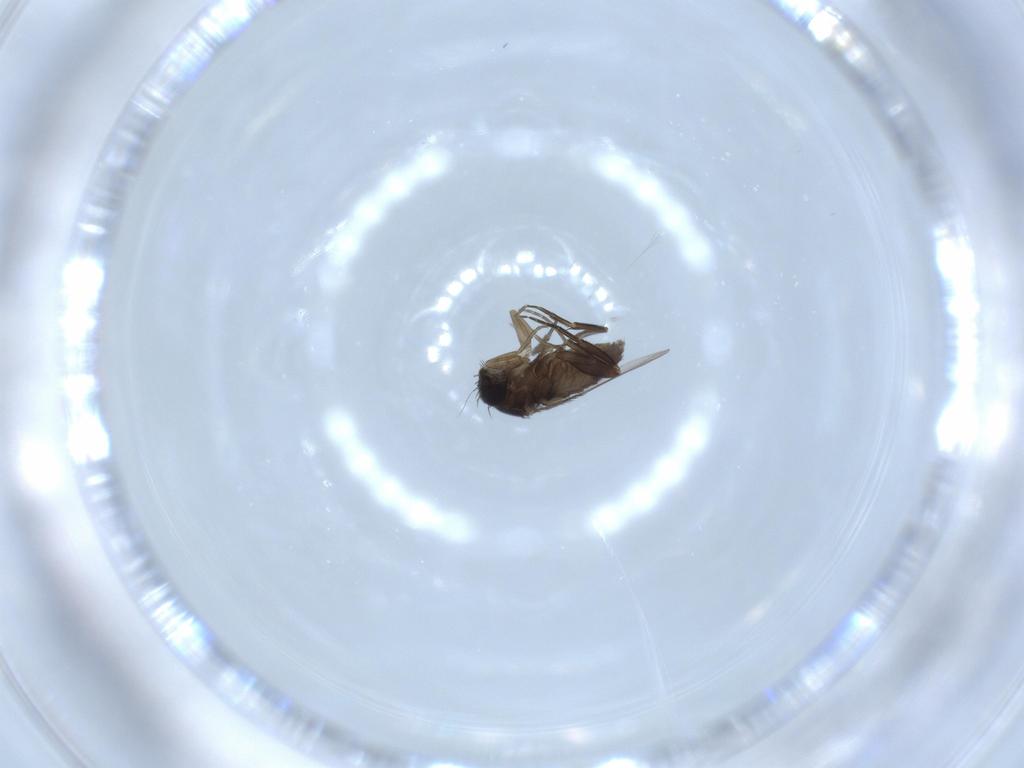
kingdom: Animalia
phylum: Arthropoda
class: Insecta
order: Diptera
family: Phoridae
